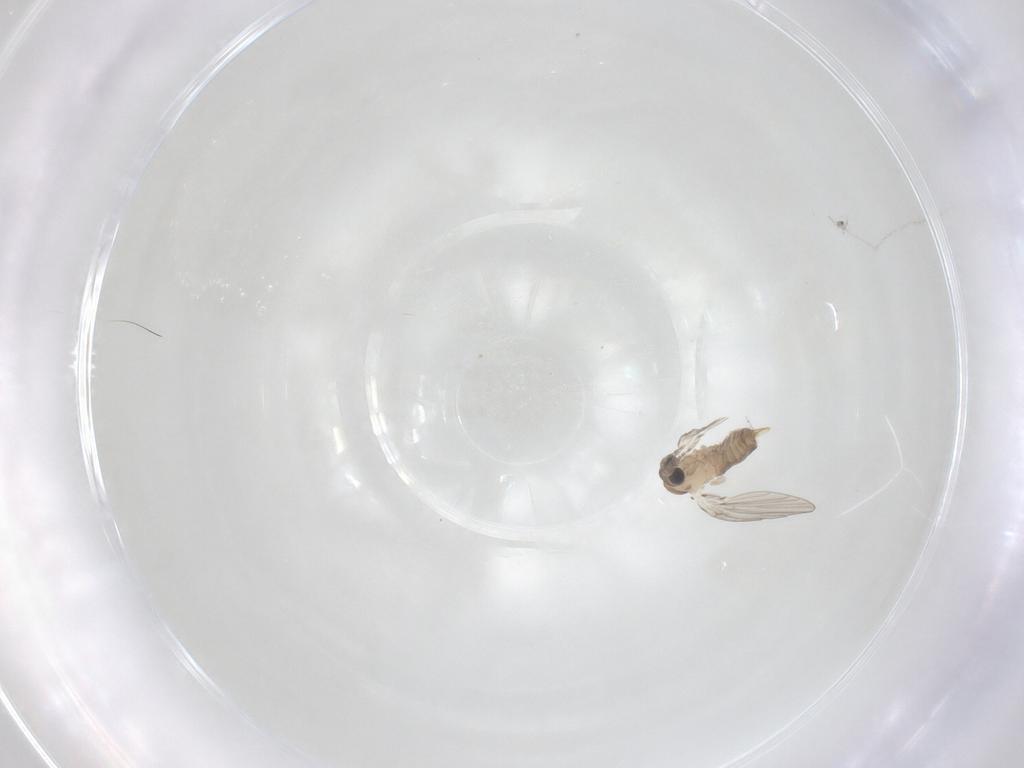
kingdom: Animalia
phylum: Arthropoda
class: Insecta
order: Diptera
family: Psychodidae
